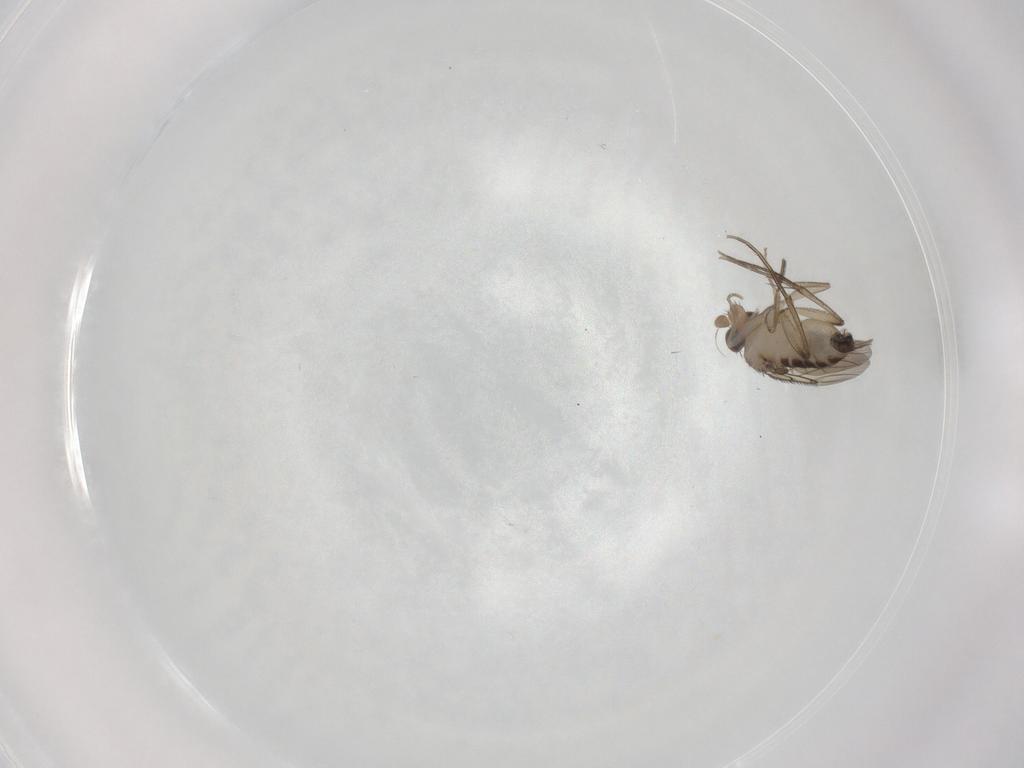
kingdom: Animalia
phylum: Arthropoda
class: Insecta
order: Diptera
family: Phoridae
